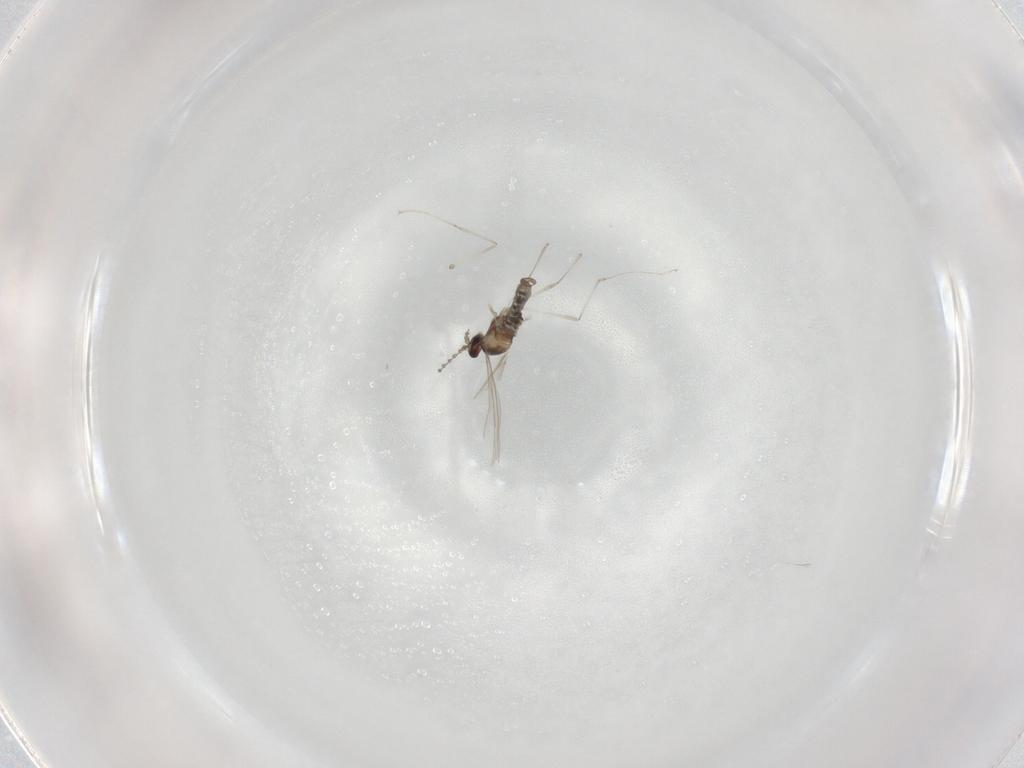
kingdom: Animalia
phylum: Arthropoda
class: Insecta
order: Diptera
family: Cecidomyiidae
